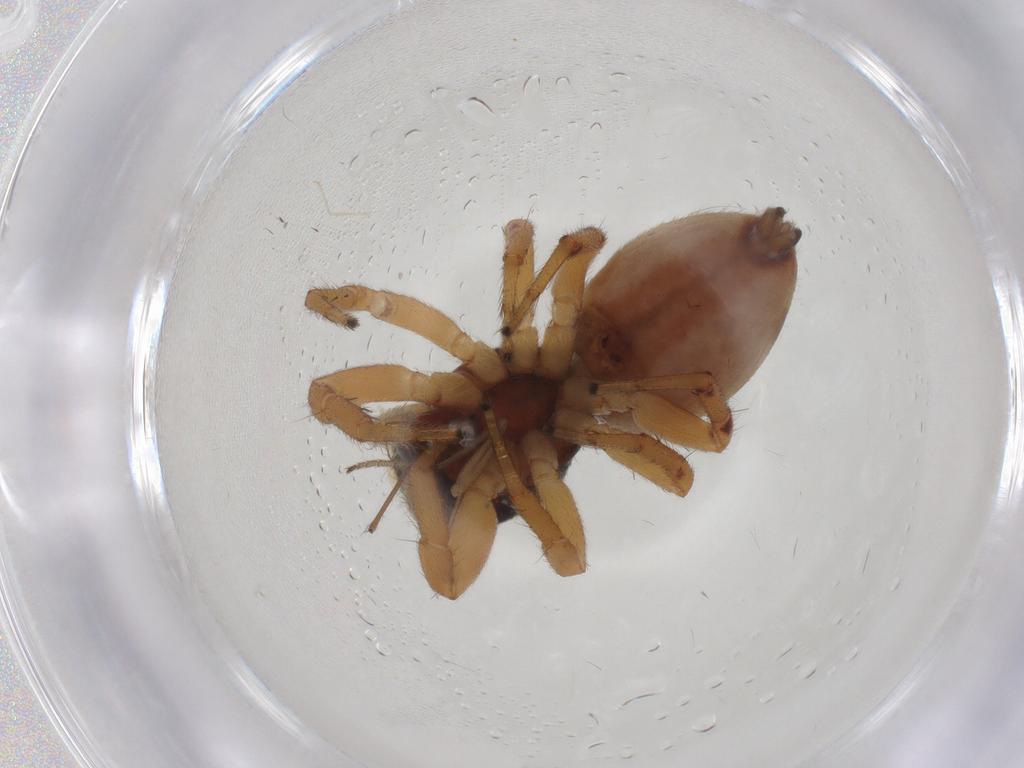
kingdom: Animalia
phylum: Arthropoda
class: Arachnida
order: Araneae
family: Salticidae
